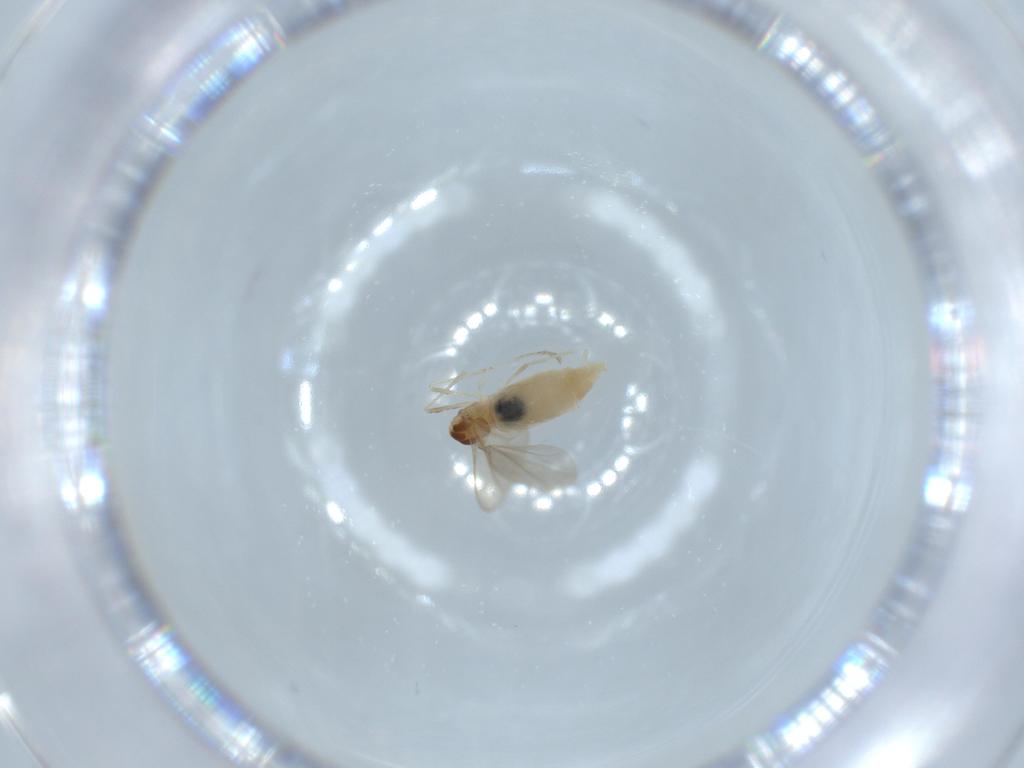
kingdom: Animalia
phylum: Arthropoda
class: Insecta
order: Diptera
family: Cecidomyiidae
